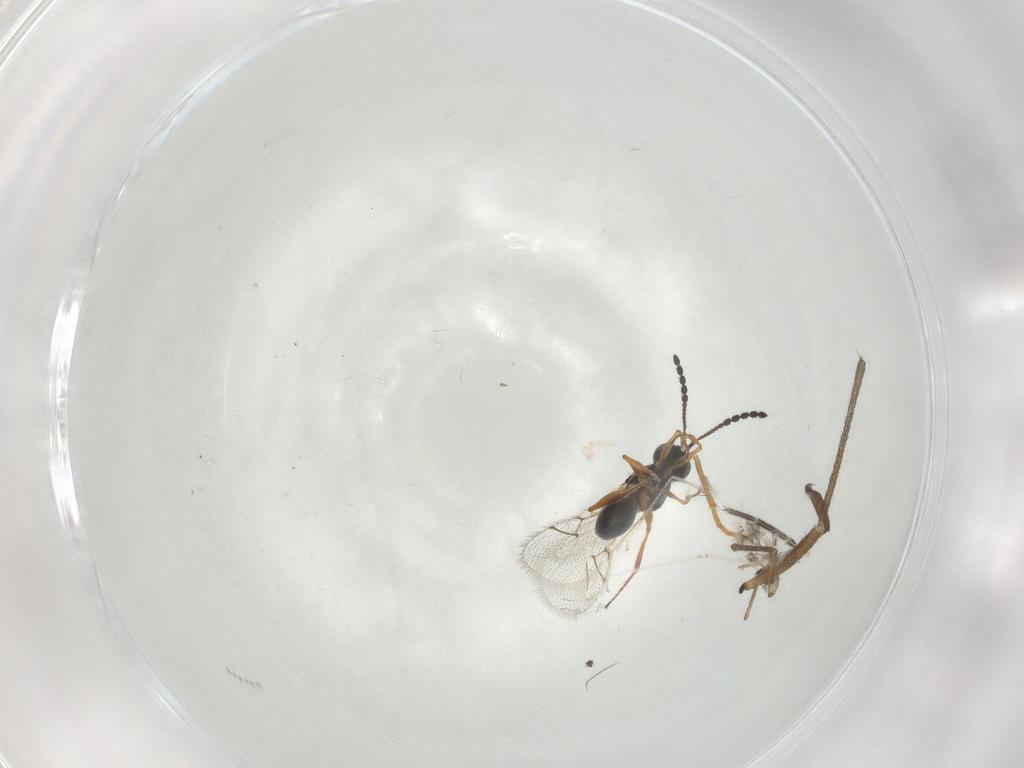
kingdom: Animalia
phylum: Arthropoda
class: Insecta
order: Hymenoptera
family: Figitidae
